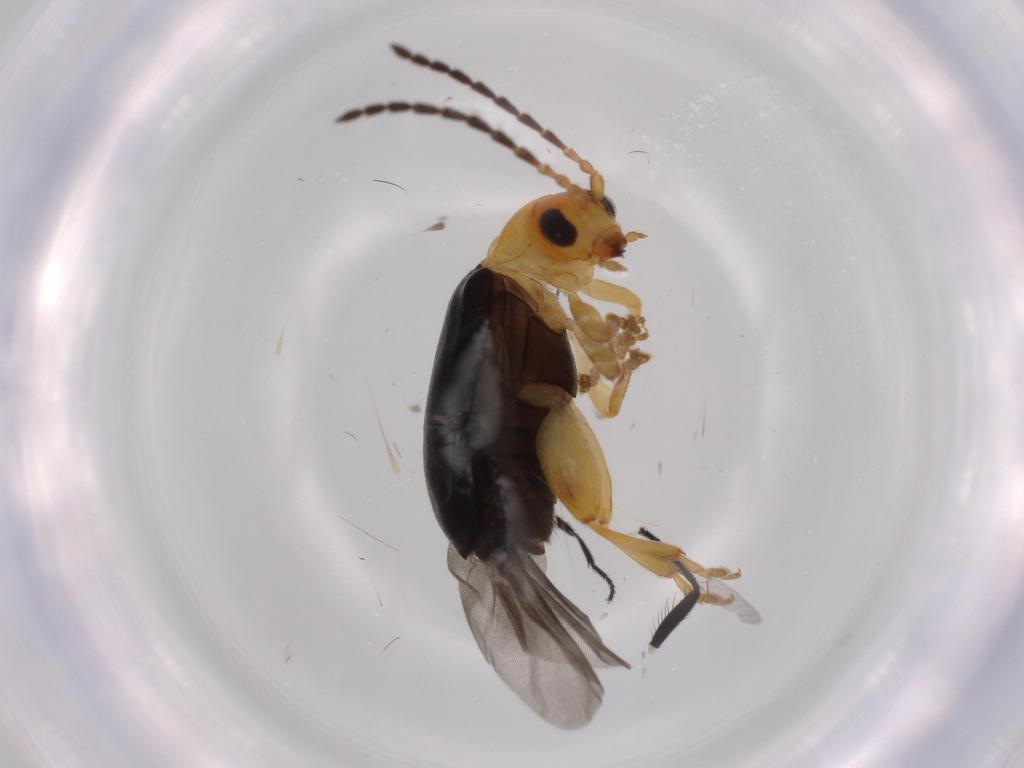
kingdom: Animalia
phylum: Arthropoda
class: Insecta
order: Coleoptera
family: Chrysomelidae
